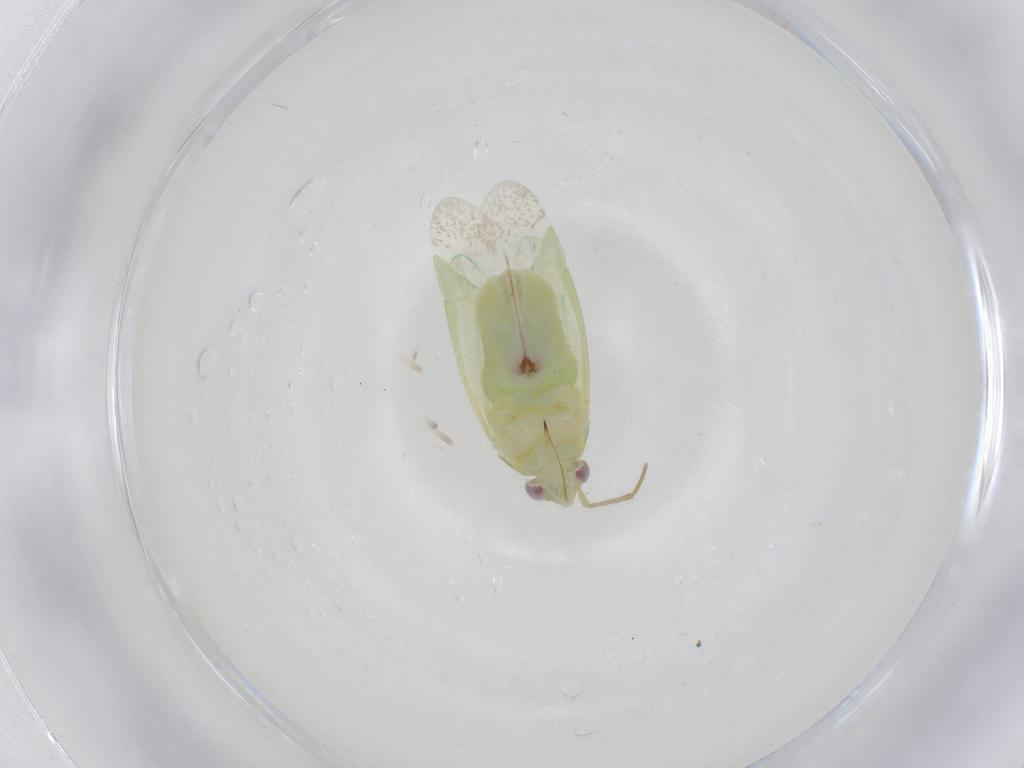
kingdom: Animalia
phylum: Arthropoda
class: Insecta
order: Hemiptera
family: Miridae
